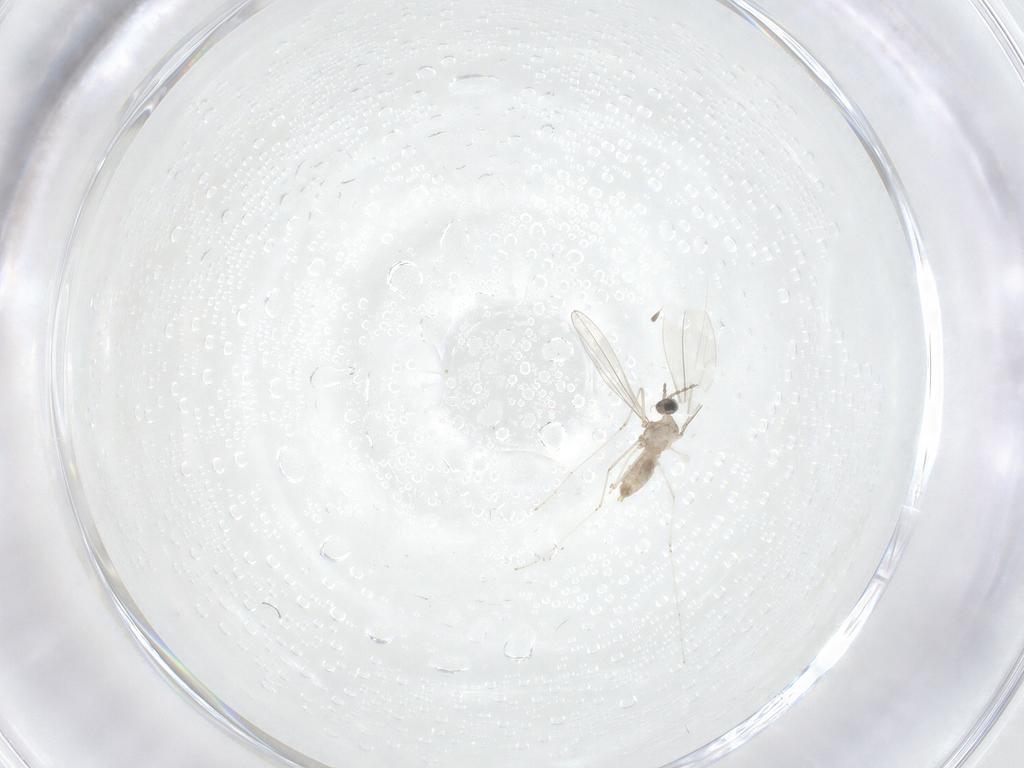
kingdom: Animalia
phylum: Arthropoda
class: Insecta
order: Diptera
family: Cecidomyiidae
